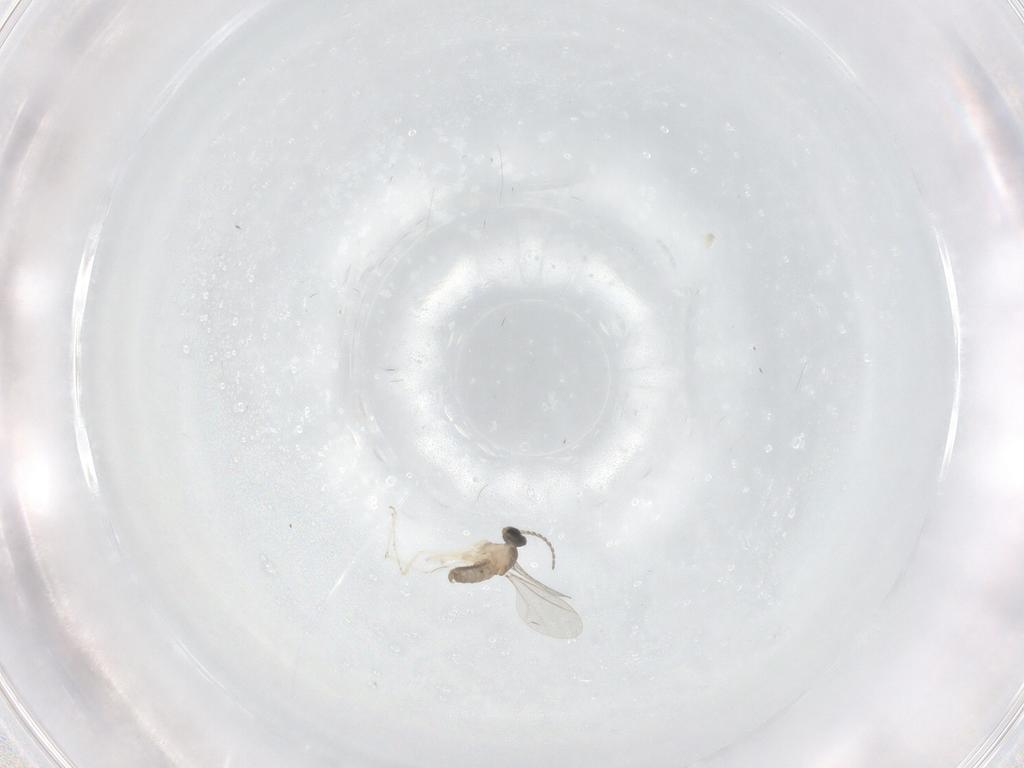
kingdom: Animalia
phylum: Arthropoda
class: Insecta
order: Diptera
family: Cecidomyiidae
